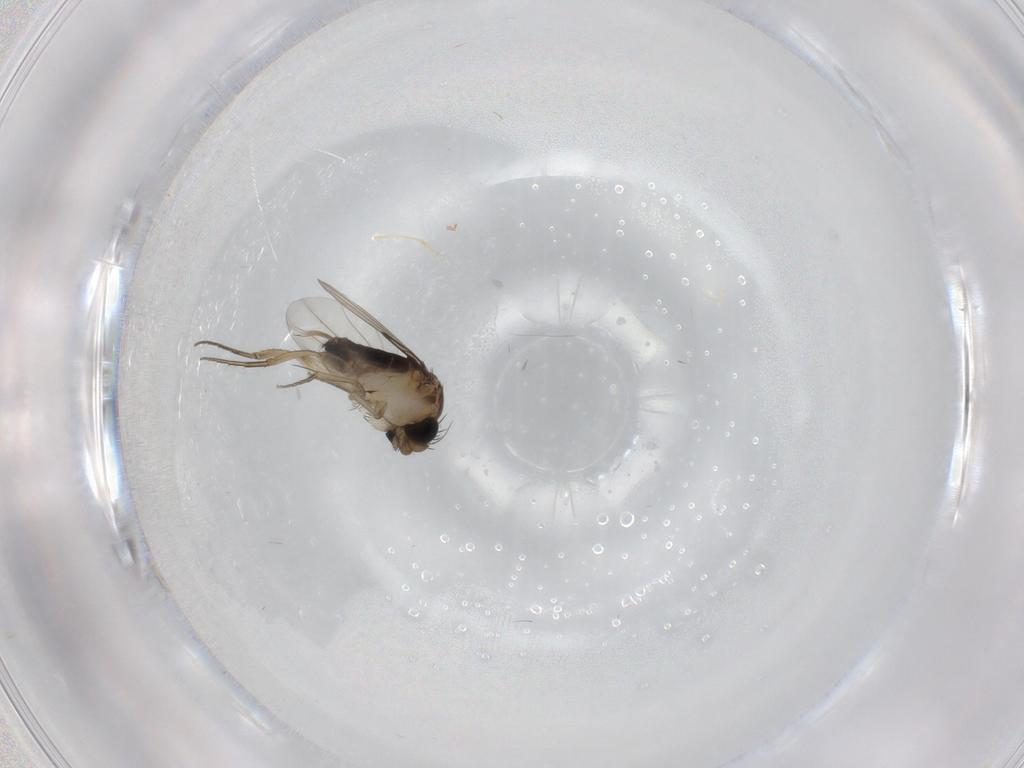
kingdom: Animalia
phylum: Arthropoda
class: Insecta
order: Diptera
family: Phoridae
